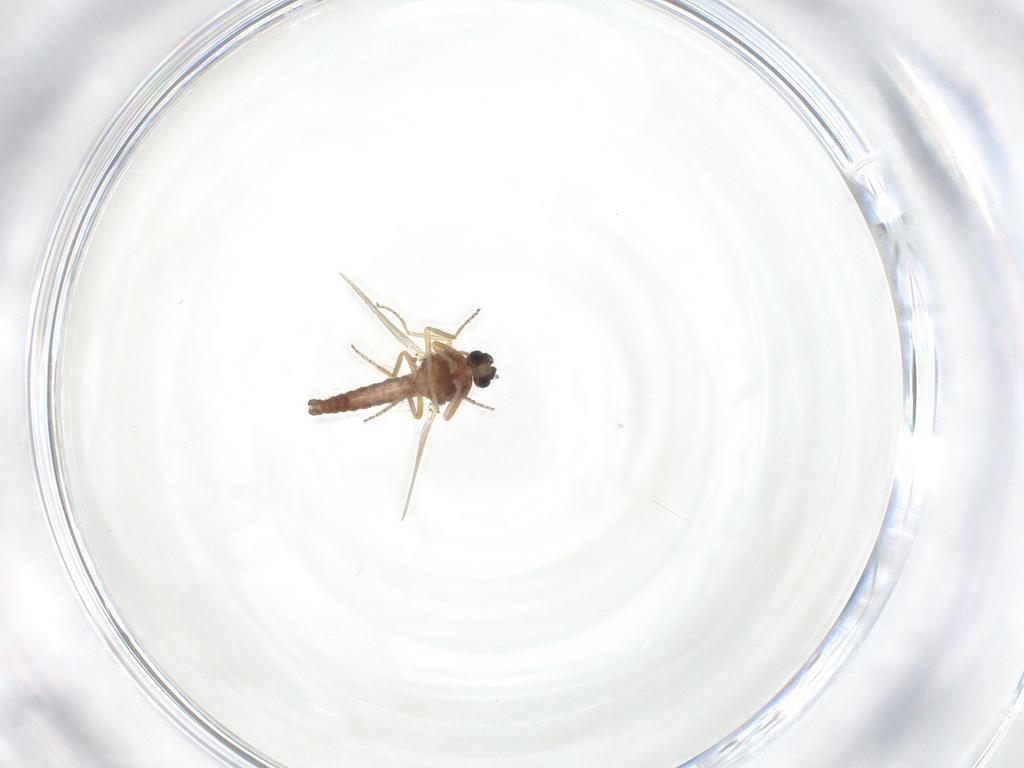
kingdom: Animalia
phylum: Arthropoda
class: Insecta
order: Diptera
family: Ceratopogonidae
